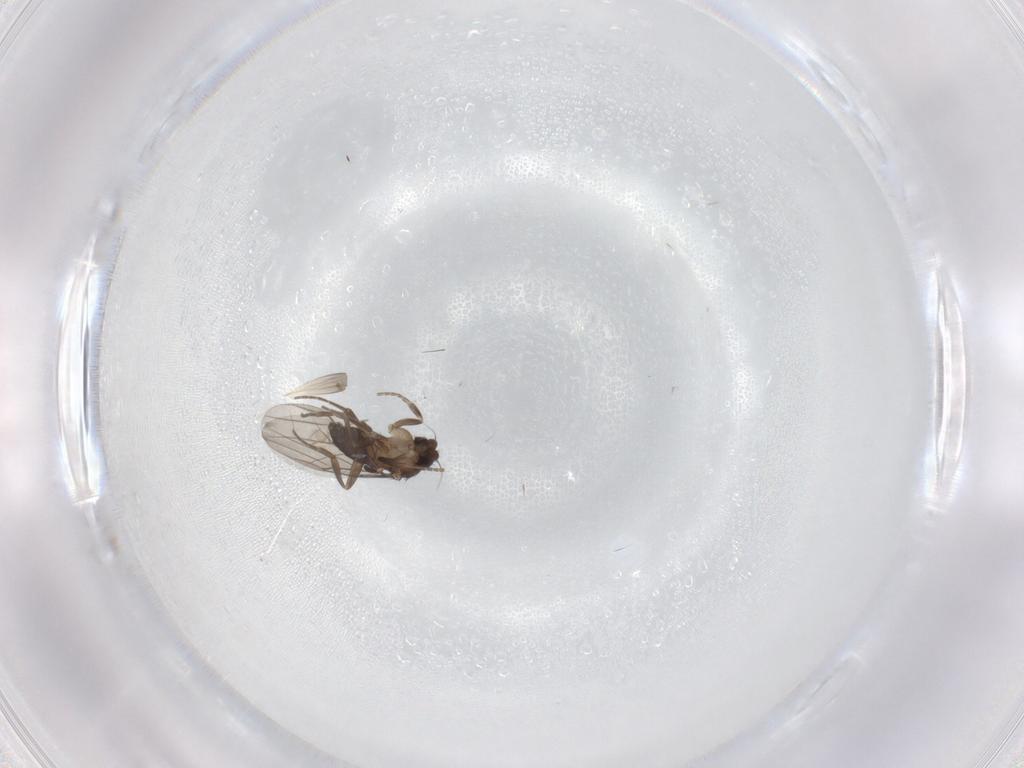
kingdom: Animalia
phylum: Arthropoda
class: Insecta
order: Diptera
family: Phoridae
